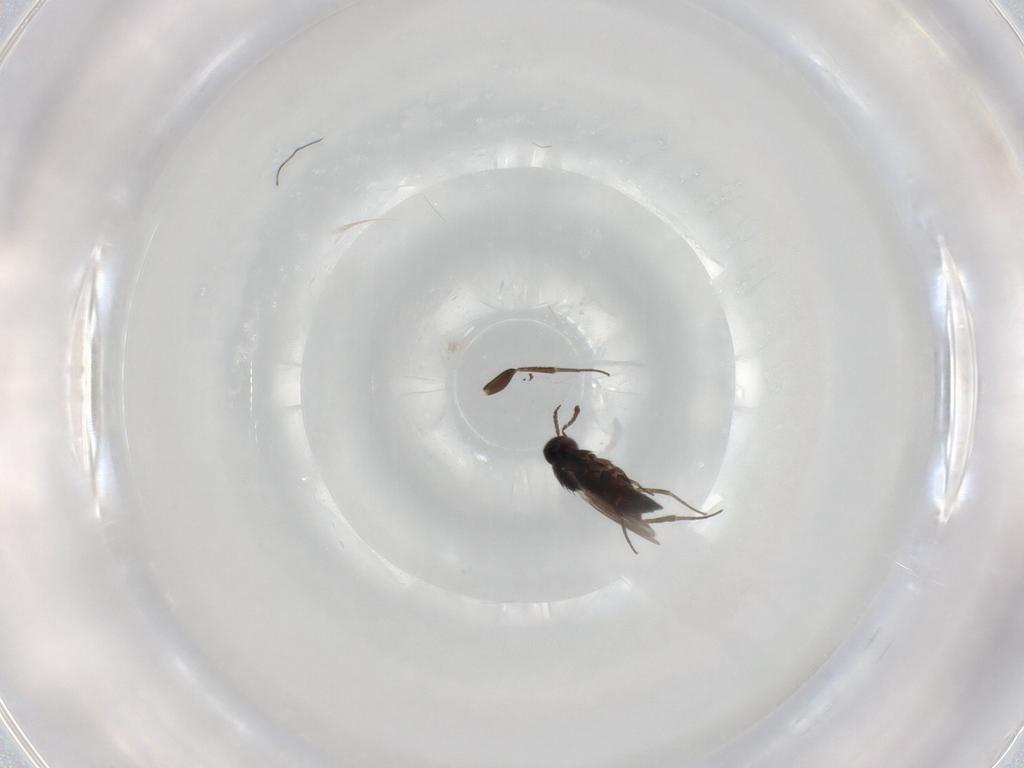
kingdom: Animalia
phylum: Arthropoda
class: Insecta
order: Hymenoptera
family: Eulophidae
